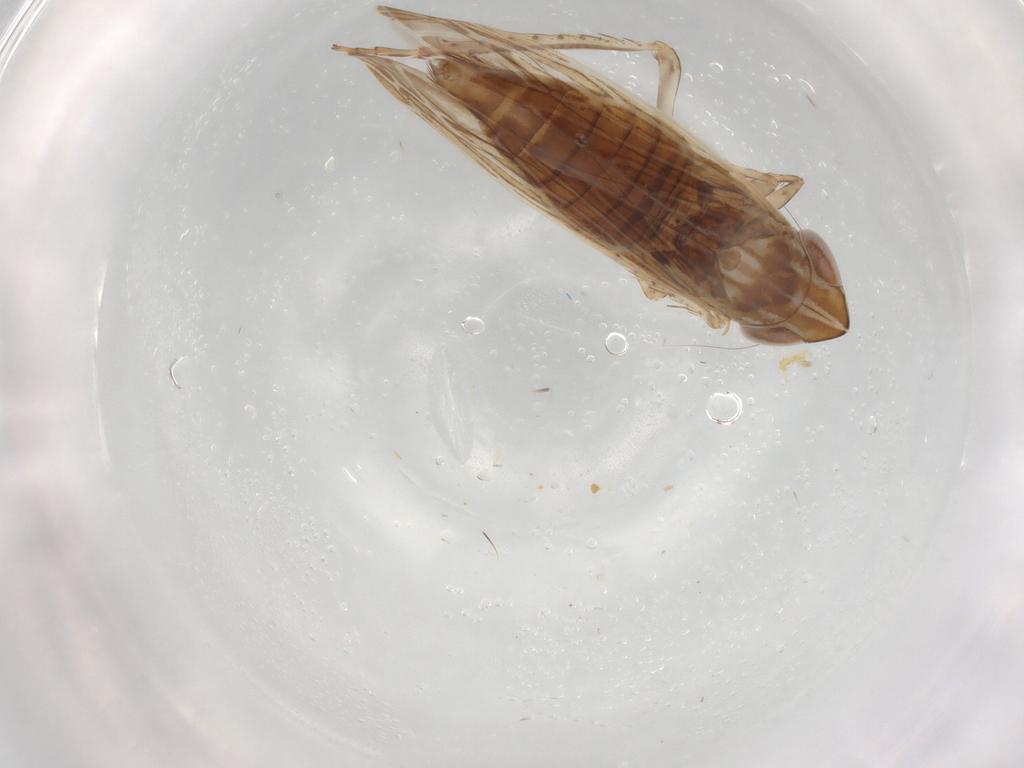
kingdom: Animalia
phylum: Arthropoda
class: Insecta
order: Hemiptera
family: Cicadellidae
